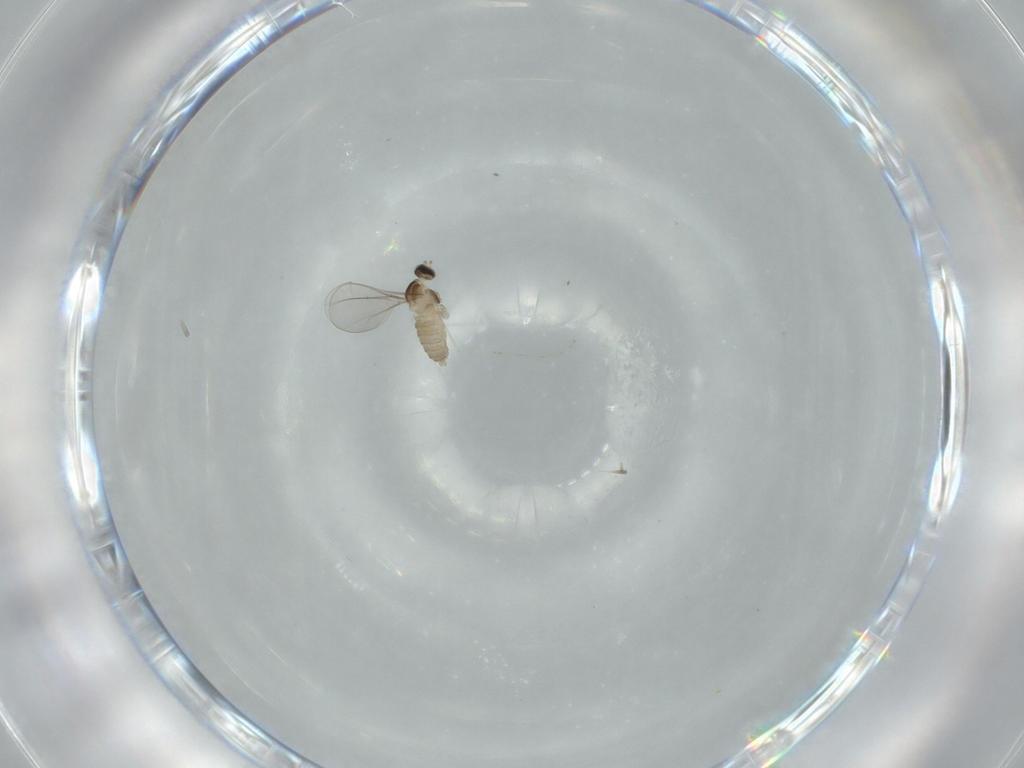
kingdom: Animalia
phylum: Arthropoda
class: Insecta
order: Diptera
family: Cecidomyiidae
